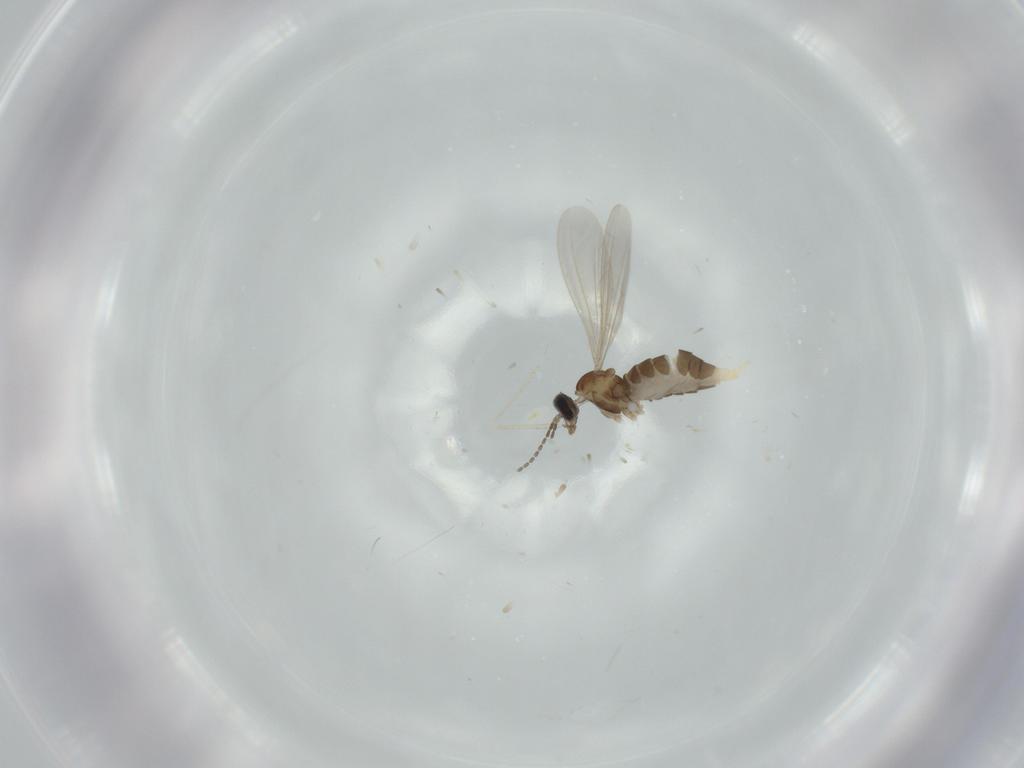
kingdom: Animalia
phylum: Arthropoda
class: Insecta
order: Diptera
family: Cecidomyiidae
